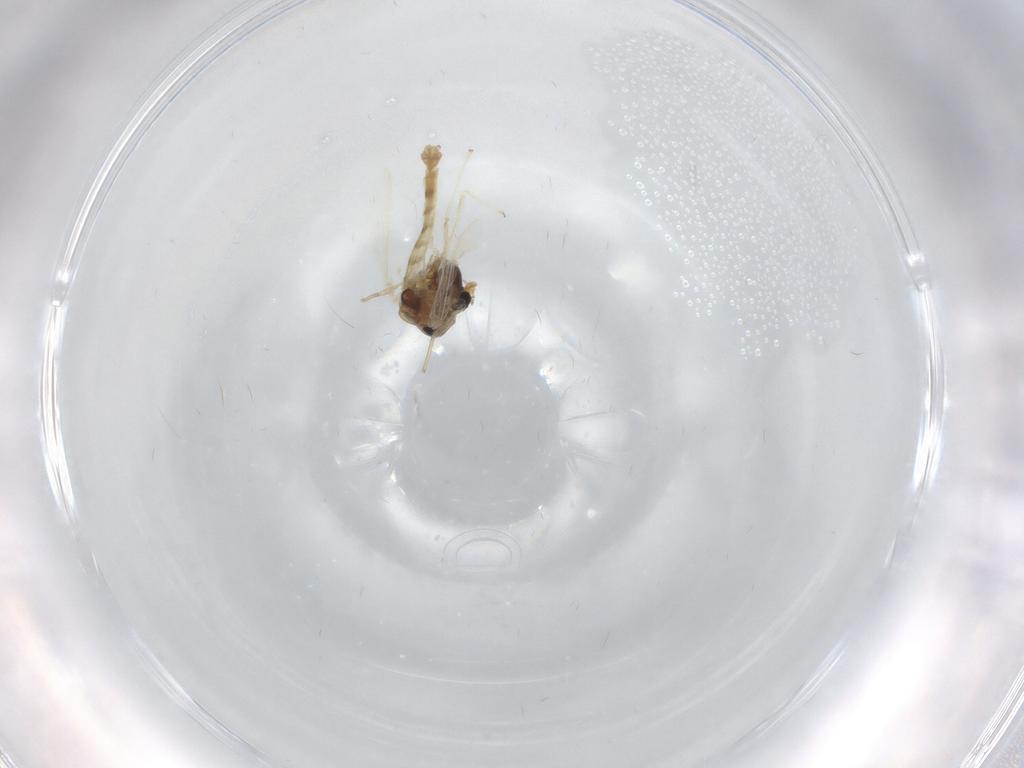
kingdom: Animalia
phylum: Arthropoda
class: Insecta
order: Diptera
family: Chironomidae
